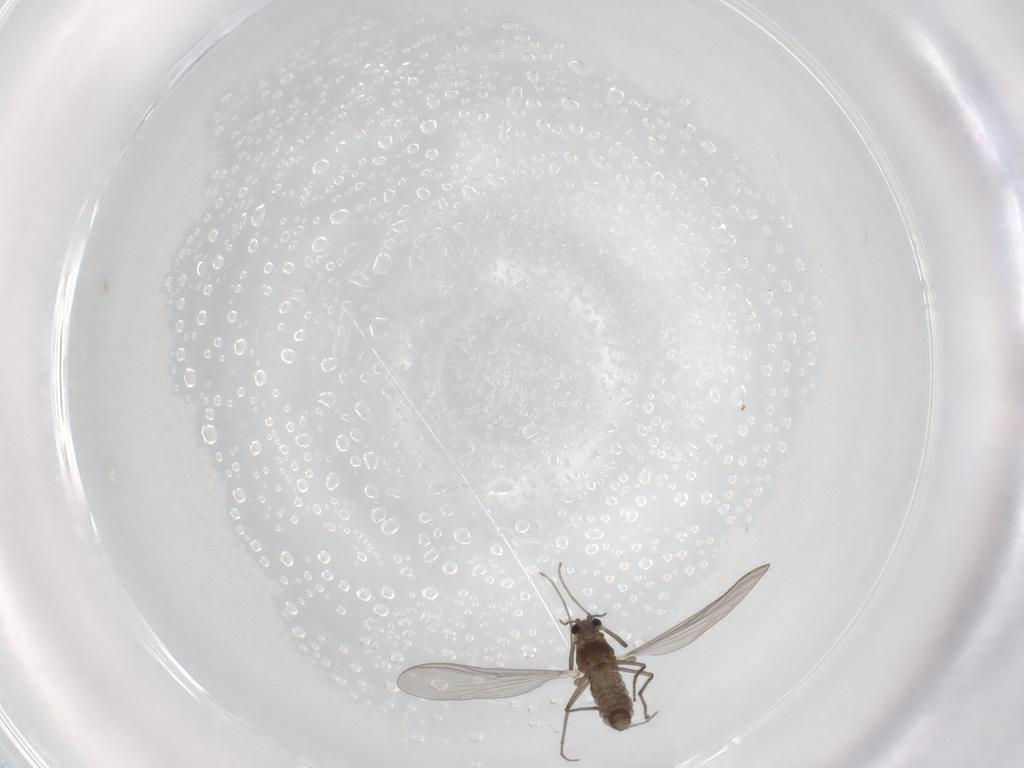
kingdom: Animalia
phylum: Arthropoda
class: Insecta
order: Diptera
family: Chironomidae
